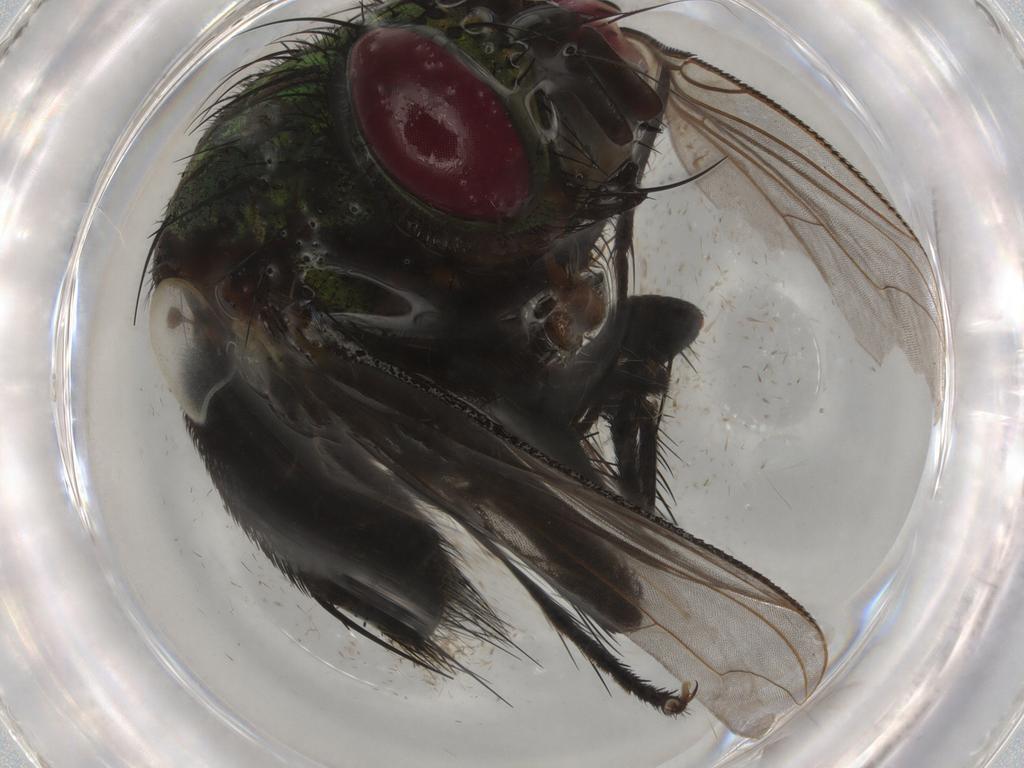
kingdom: Animalia
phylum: Arthropoda
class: Insecta
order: Diptera
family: Tachinidae
